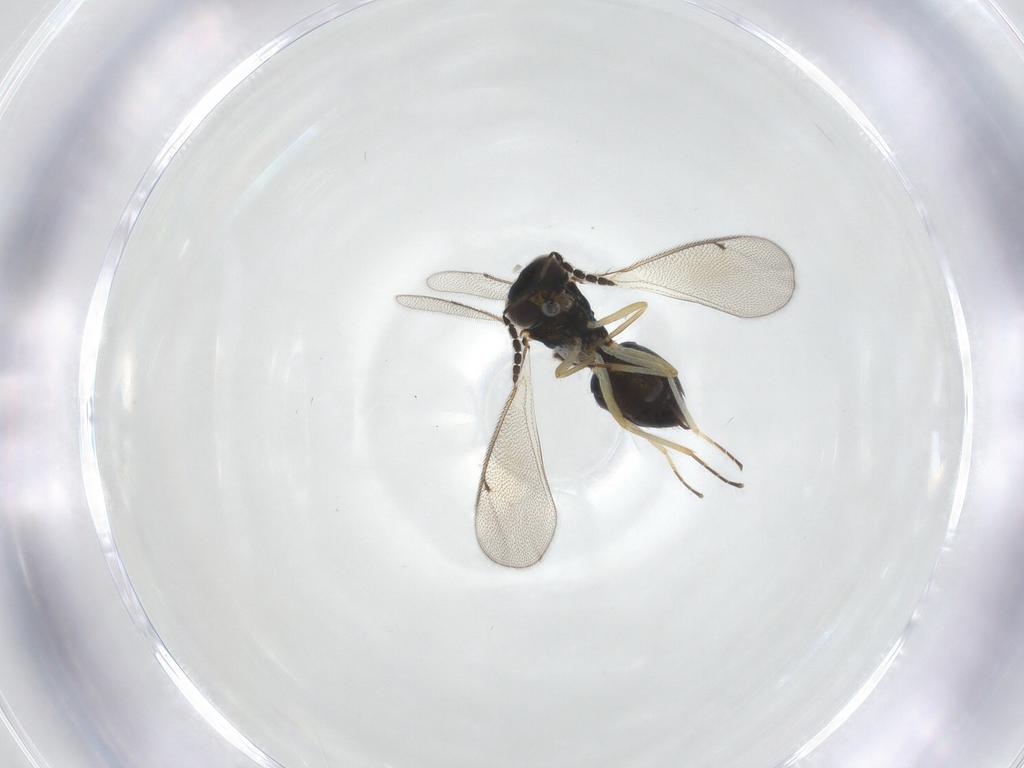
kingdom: Animalia
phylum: Arthropoda
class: Insecta
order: Hymenoptera
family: Eulophidae
